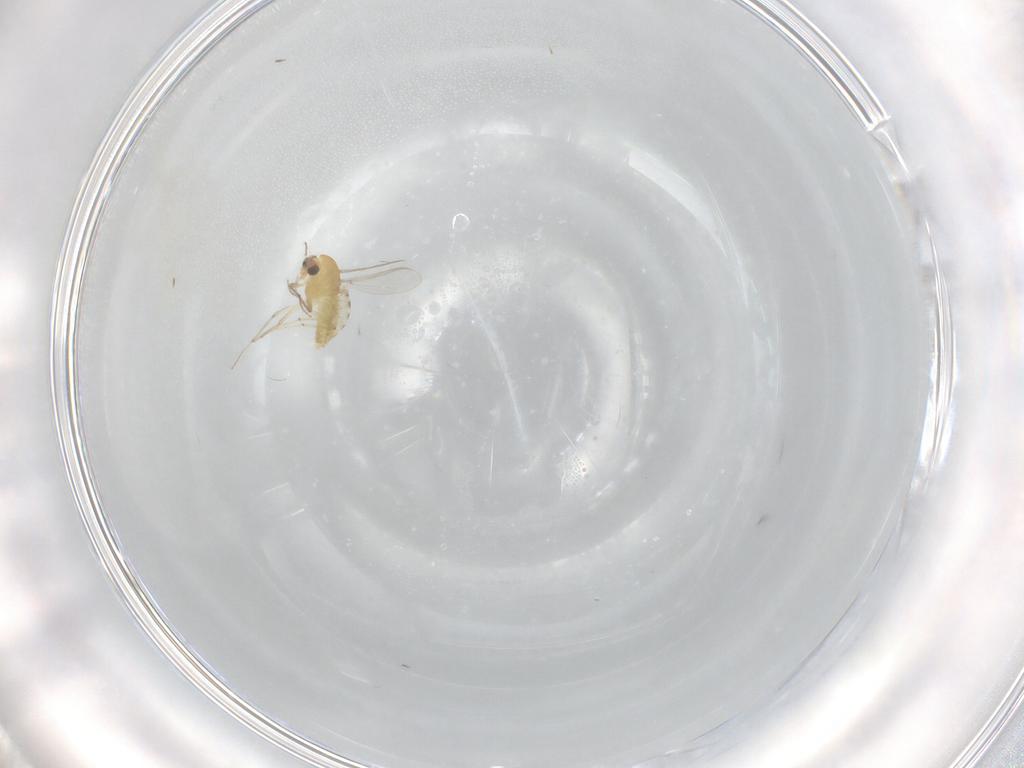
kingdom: Animalia
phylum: Arthropoda
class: Insecta
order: Diptera
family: Chironomidae
